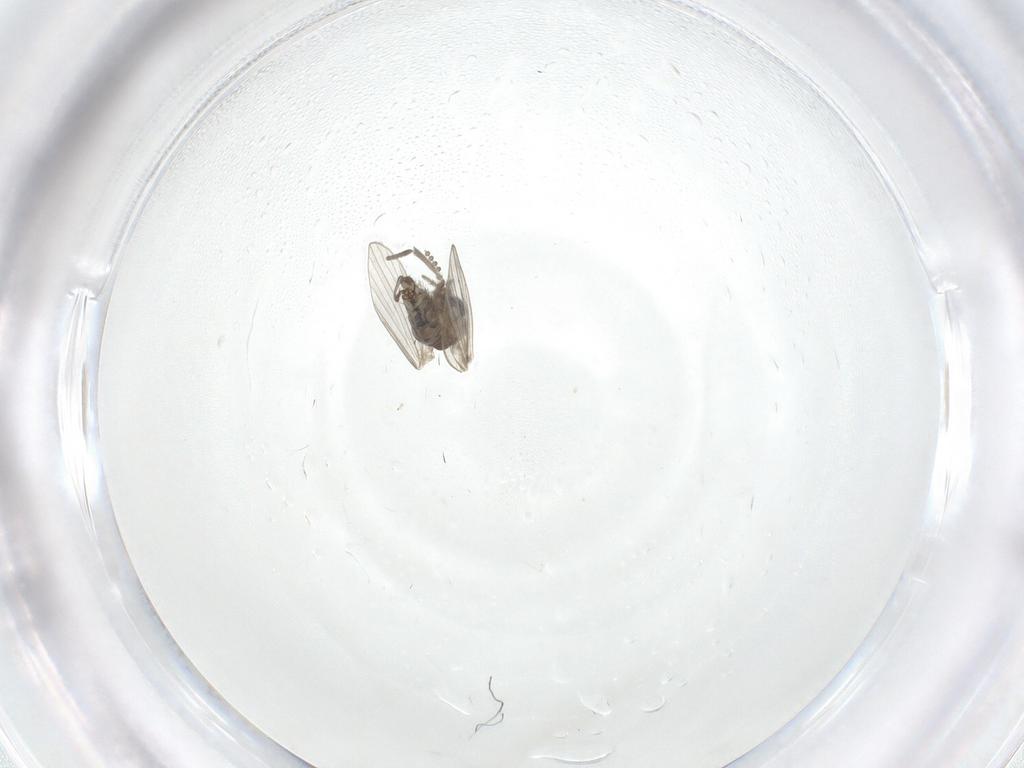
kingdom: Animalia
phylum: Arthropoda
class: Insecta
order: Diptera
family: Psychodidae
